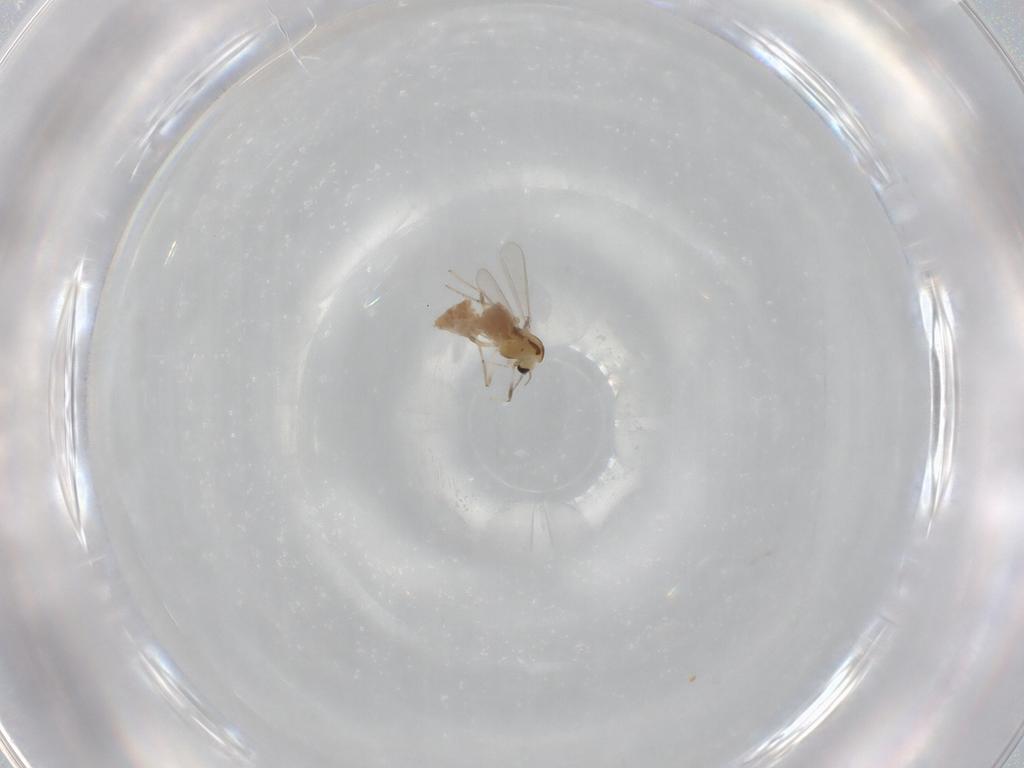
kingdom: Animalia
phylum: Arthropoda
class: Insecta
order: Diptera
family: Chironomidae
